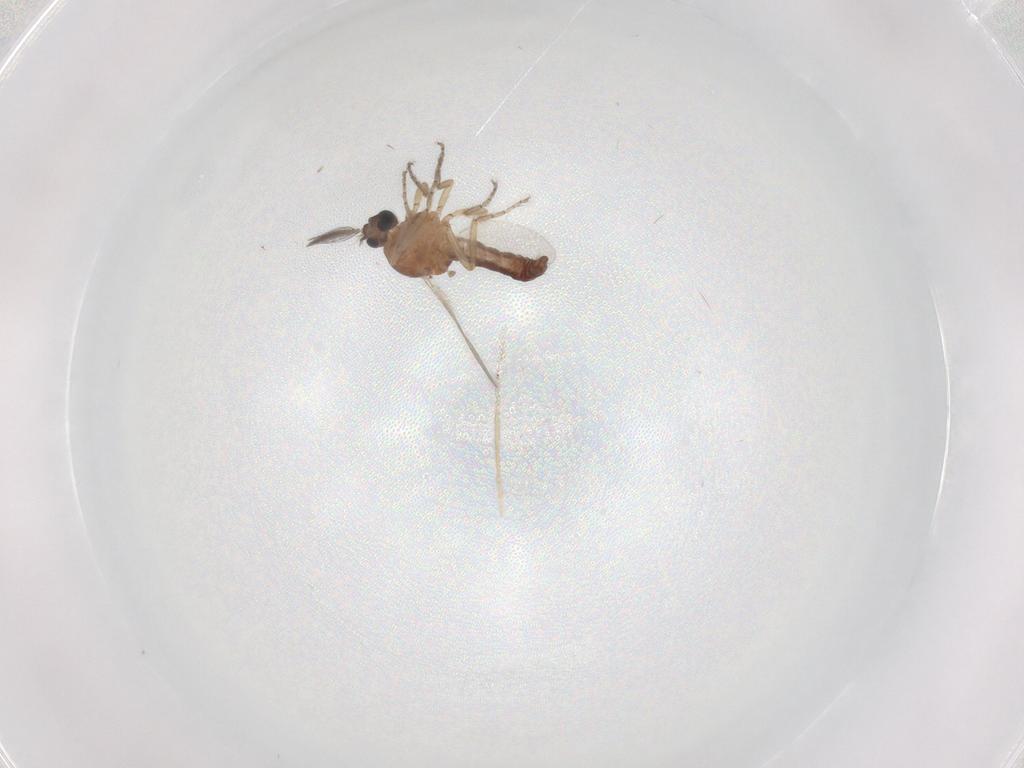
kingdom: Animalia
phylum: Arthropoda
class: Insecta
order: Diptera
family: Ceratopogonidae
